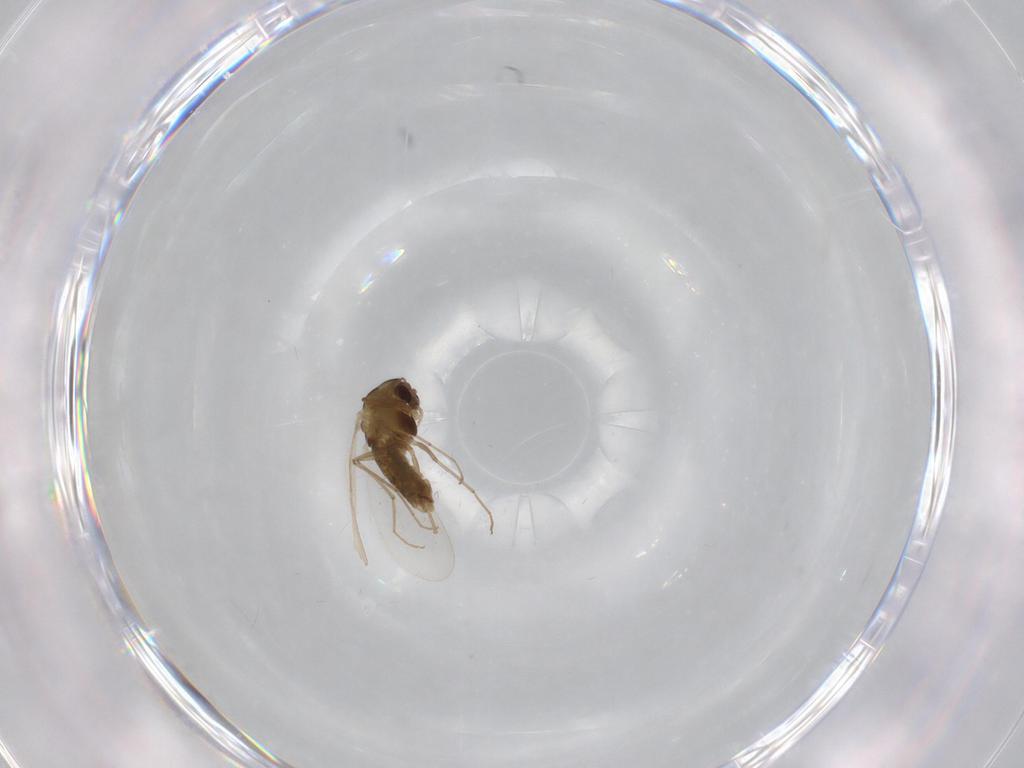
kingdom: Animalia
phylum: Arthropoda
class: Insecta
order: Diptera
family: Chironomidae
